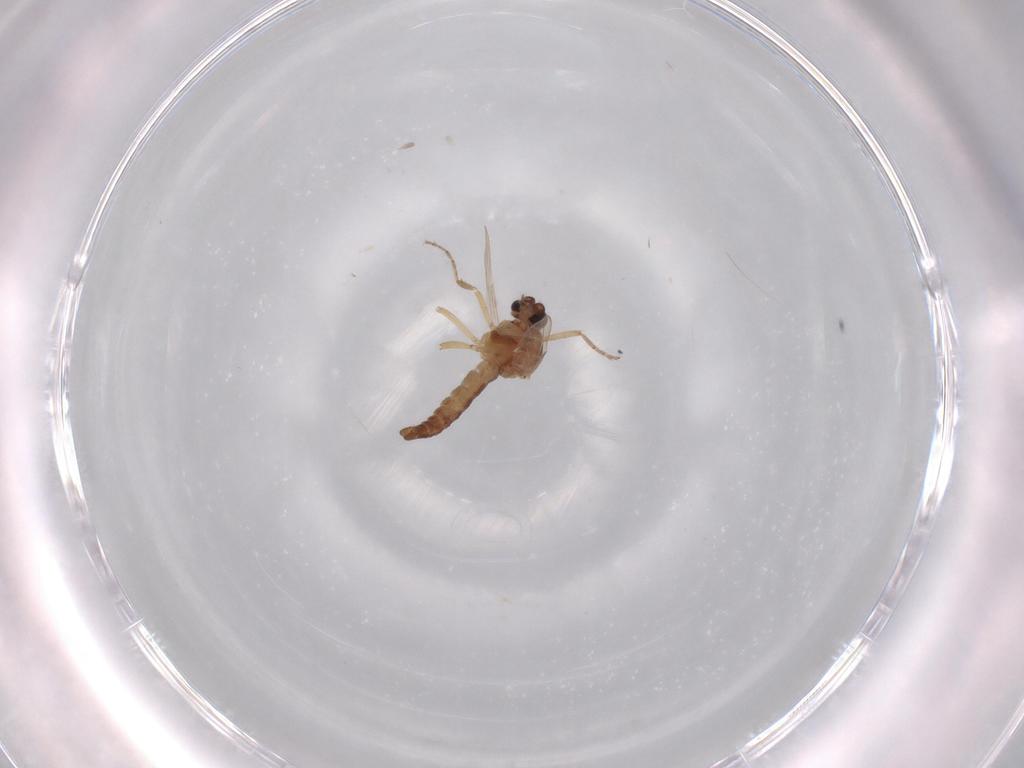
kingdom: Animalia
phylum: Arthropoda
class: Insecta
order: Diptera
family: Ceratopogonidae
